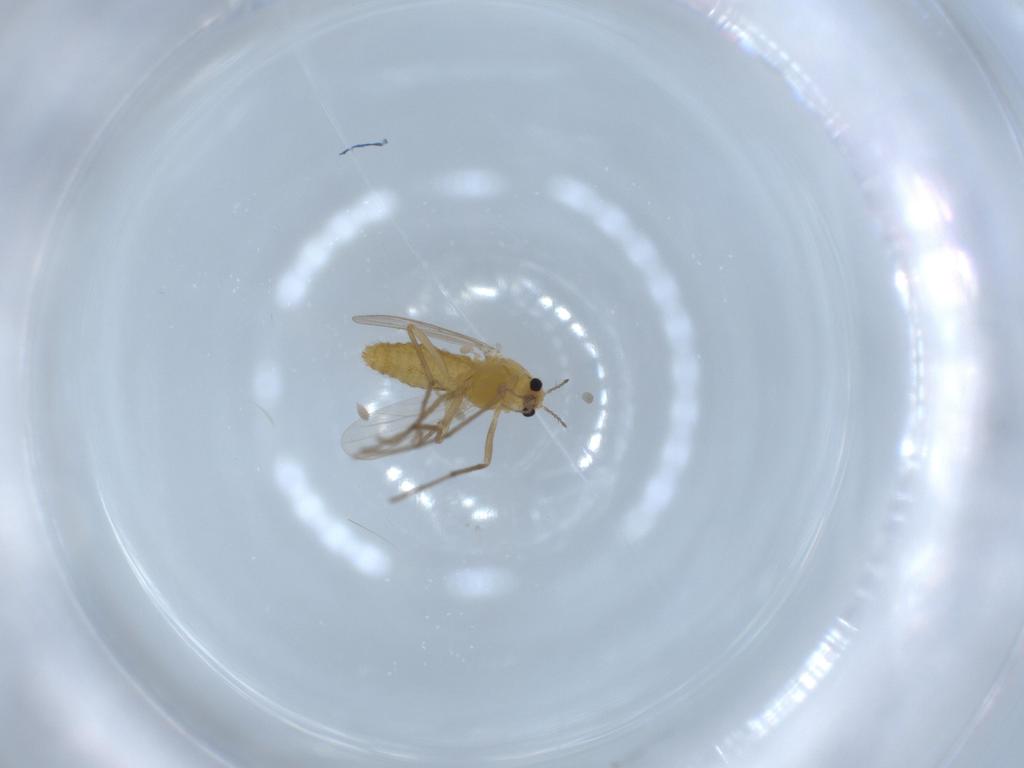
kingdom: Animalia
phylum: Arthropoda
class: Insecta
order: Diptera
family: Chironomidae
